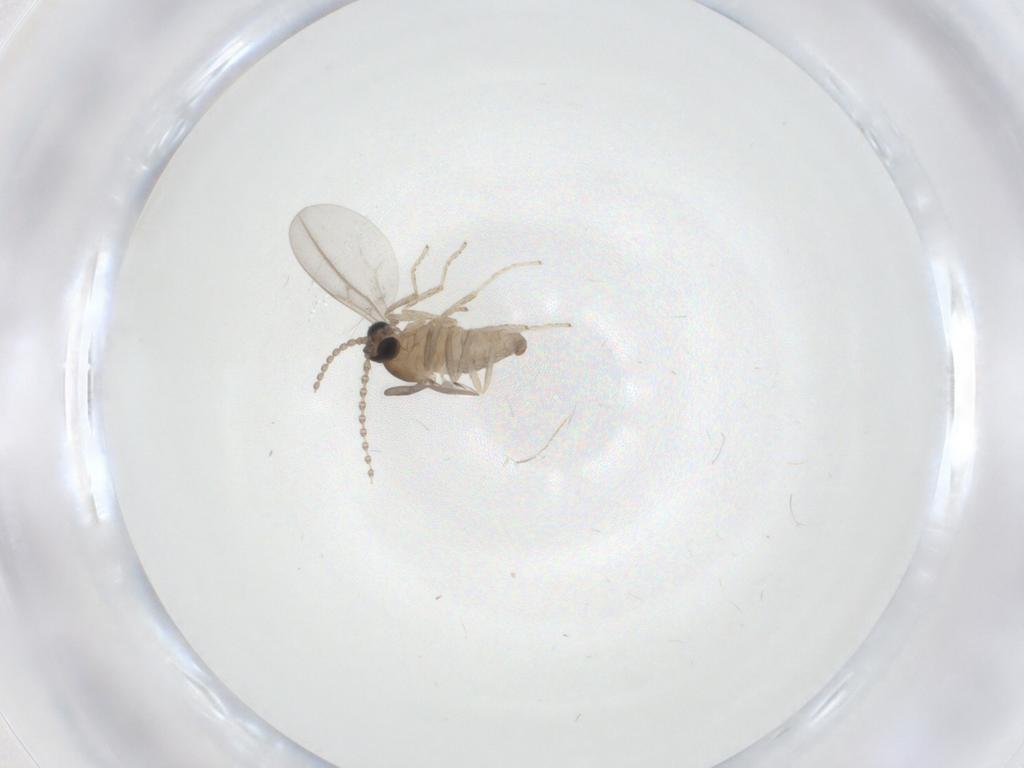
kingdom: Animalia
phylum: Arthropoda
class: Insecta
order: Diptera
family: Cecidomyiidae
